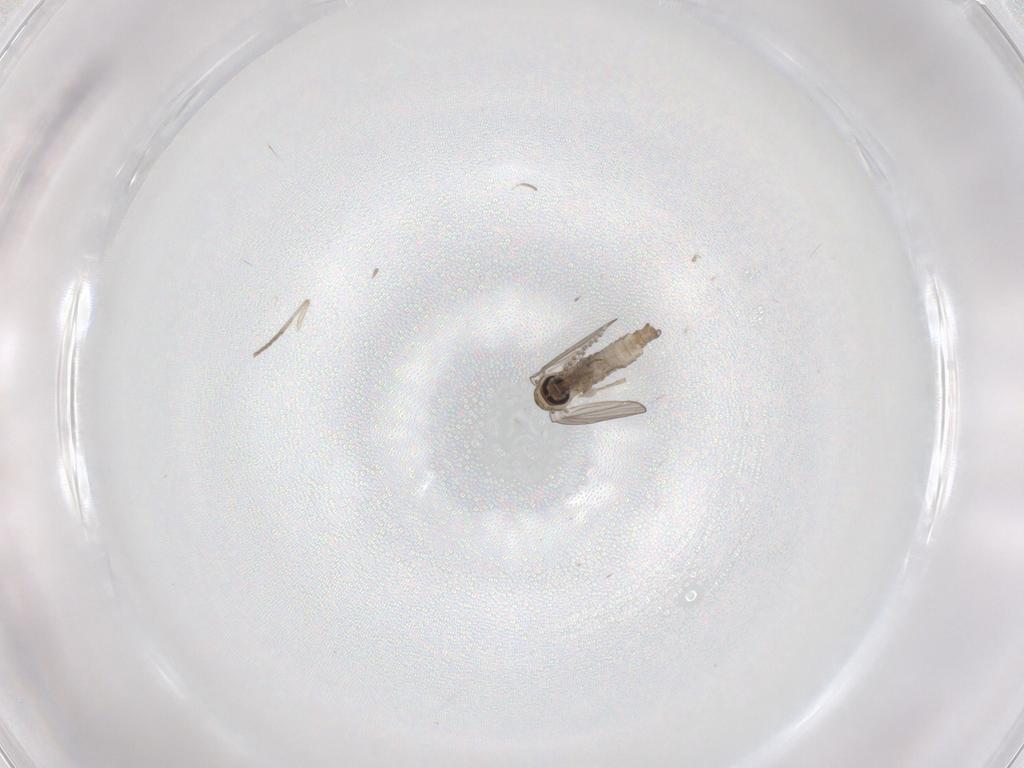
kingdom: Animalia
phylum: Arthropoda
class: Insecta
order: Diptera
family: Psychodidae
